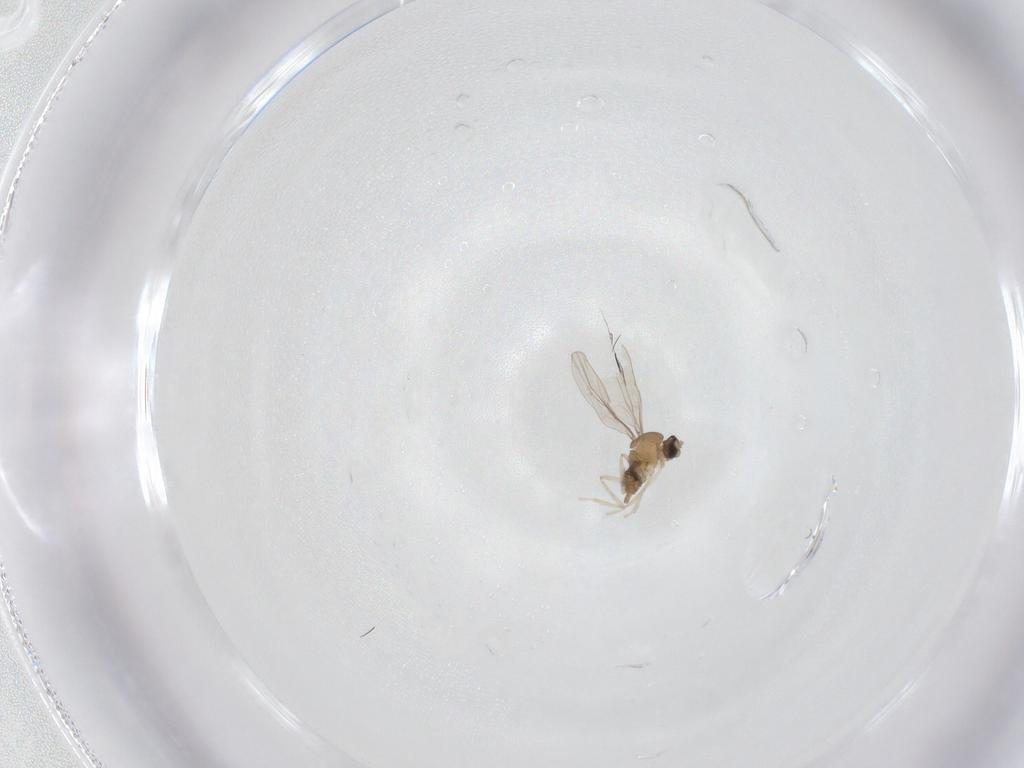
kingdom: Animalia
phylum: Arthropoda
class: Insecta
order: Diptera
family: Cecidomyiidae
